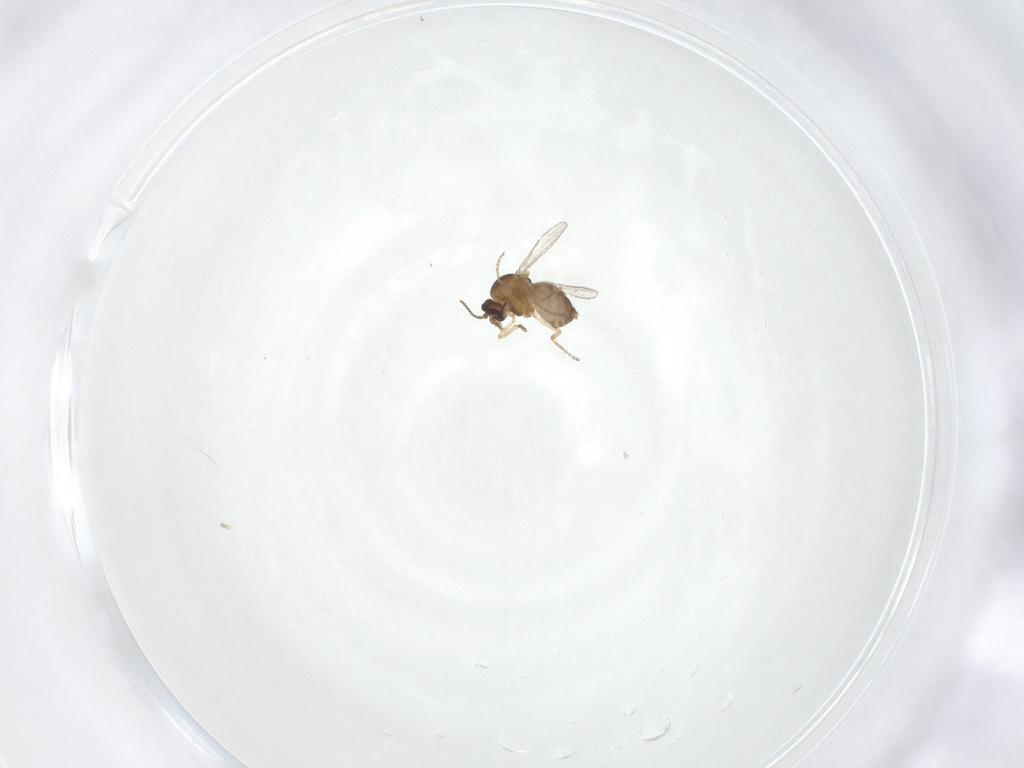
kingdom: Animalia
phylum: Arthropoda
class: Insecta
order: Diptera
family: Ceratopogonidae
